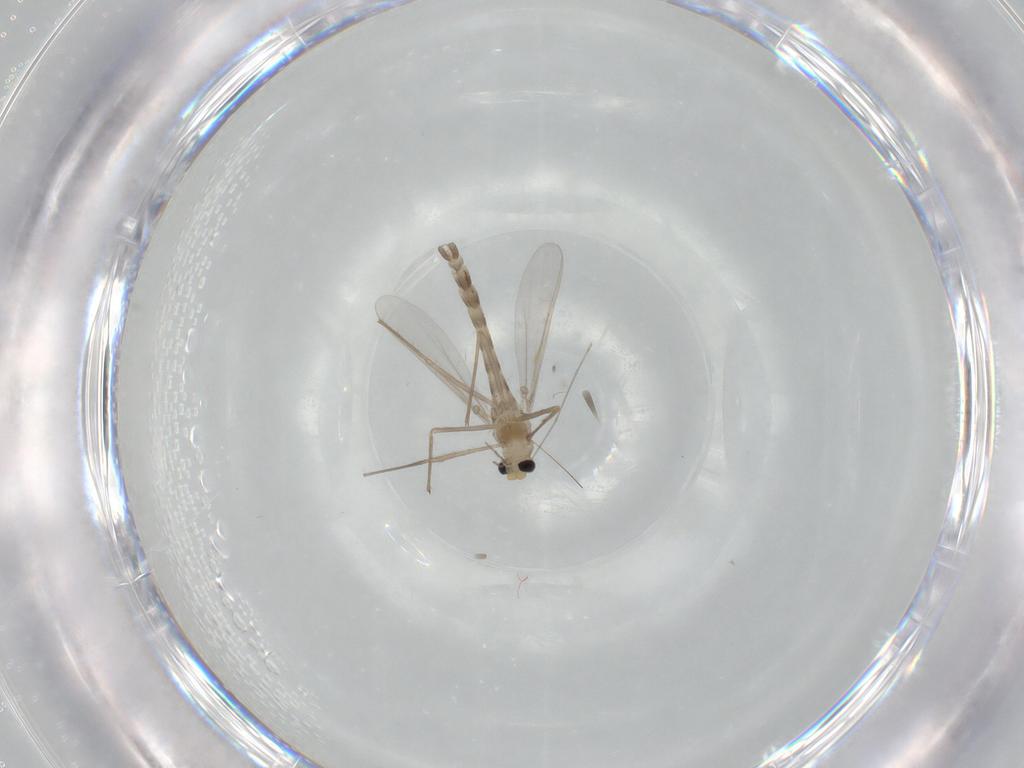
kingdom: Animalia
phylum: Arthropoda
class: Insecta
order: Diptera
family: Chironomidae
